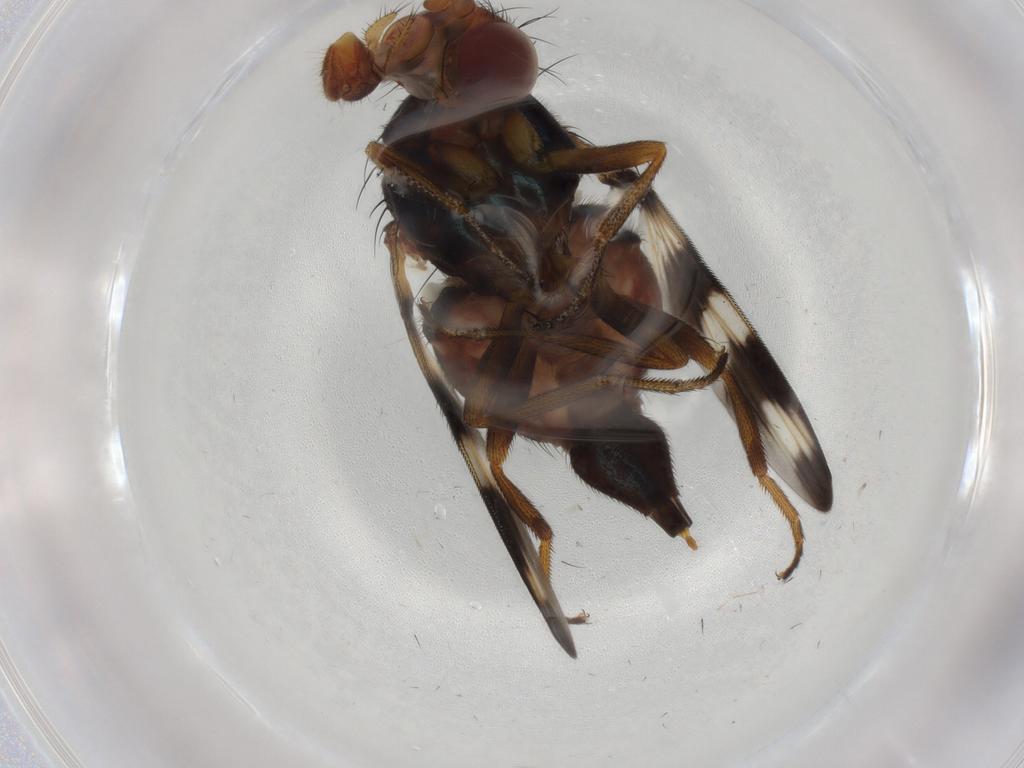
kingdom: Animalia
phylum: Arthropoda
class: Insecta
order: Diptera
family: Ulidiidae
